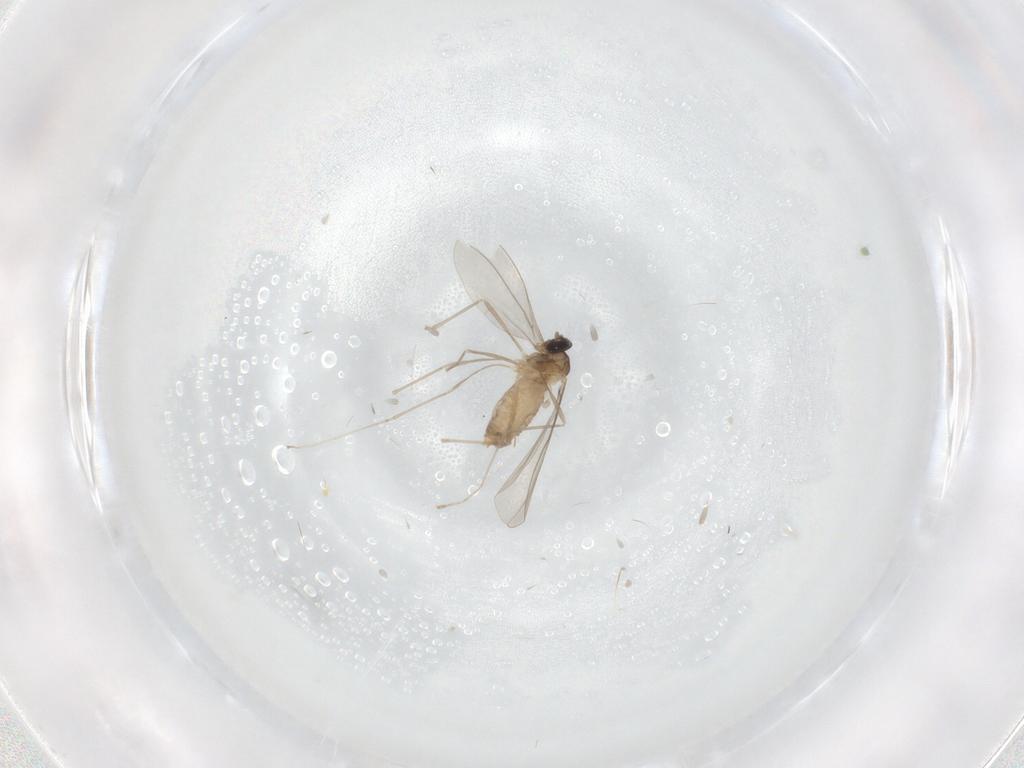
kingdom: Animalia
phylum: Arthropoda
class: Insecta
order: Diptera
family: Cecidomyiidae
